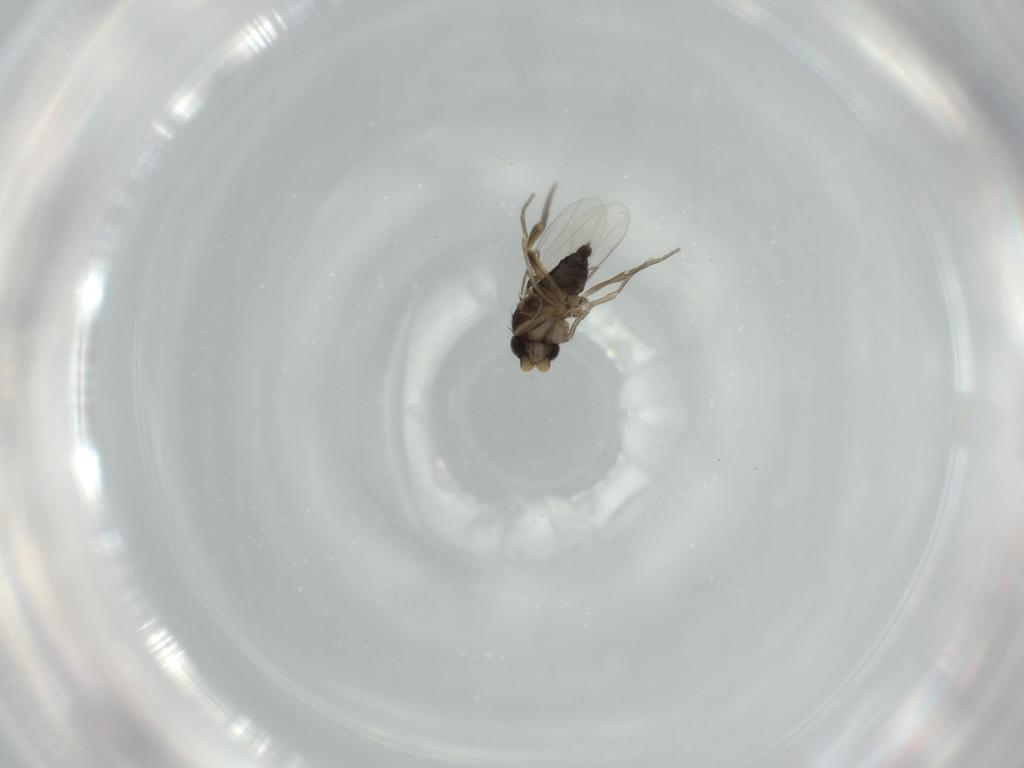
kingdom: Animalia
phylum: Arthropoda
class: Insecta
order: Diptera
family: Phoridae
